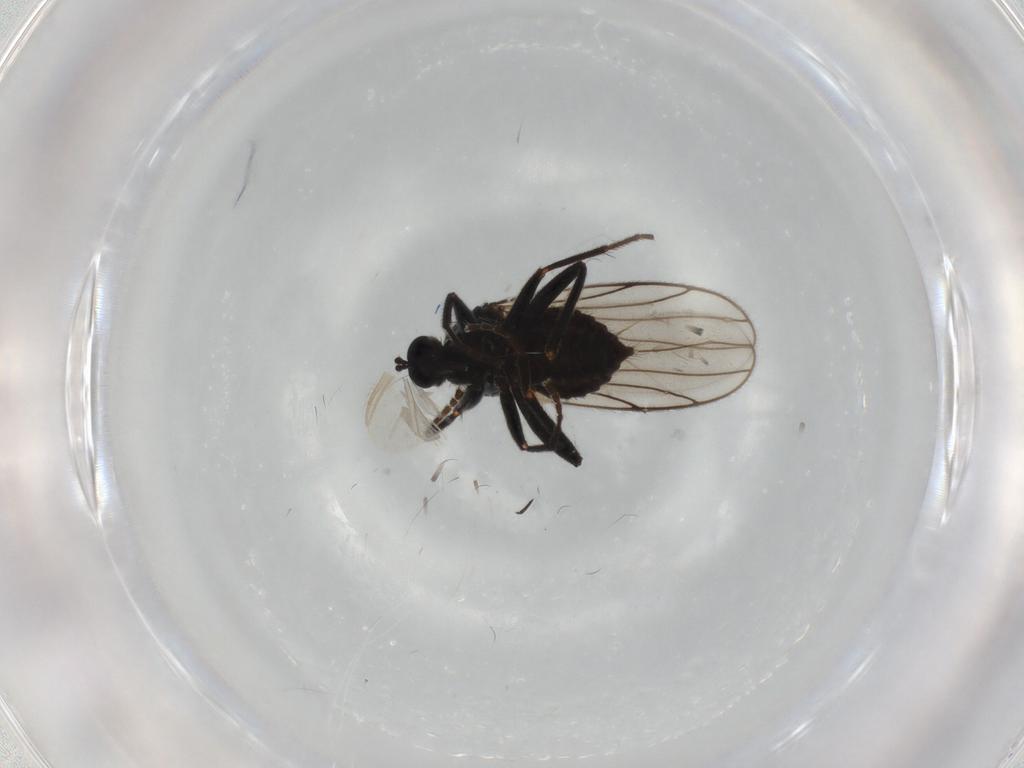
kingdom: Animalia
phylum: Arthropoda
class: Insecta
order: Diptera
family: Hybotidae
